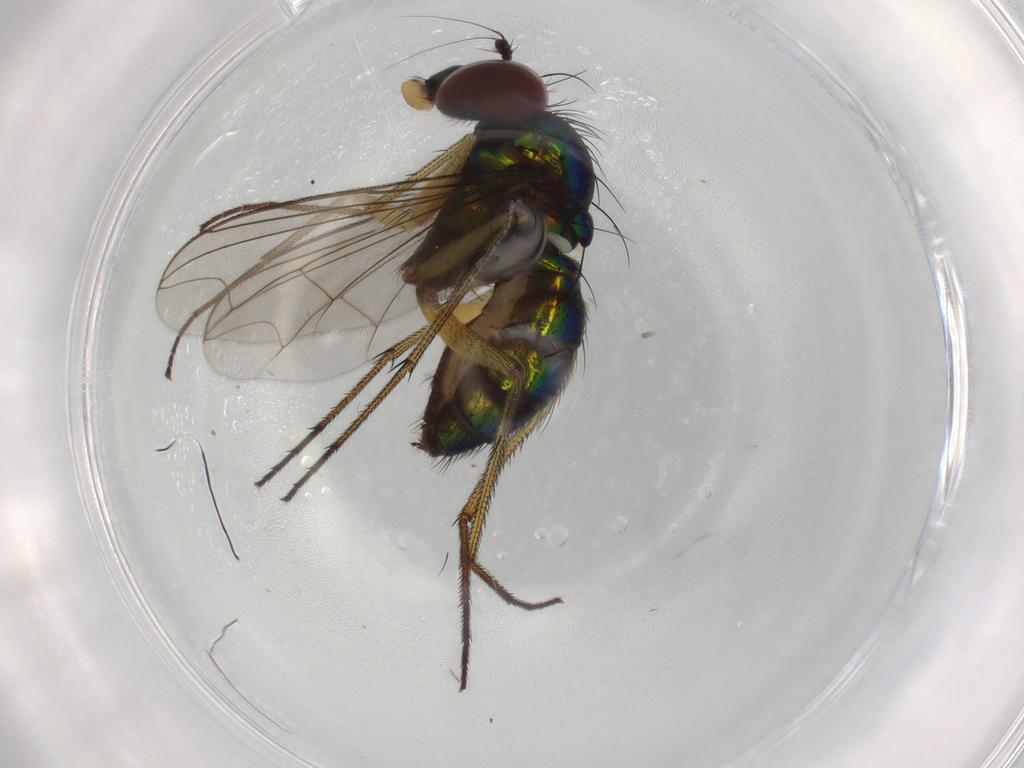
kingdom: Animalia
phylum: Arthropoda
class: Insecta
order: Diptera
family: Dolichopodidae
